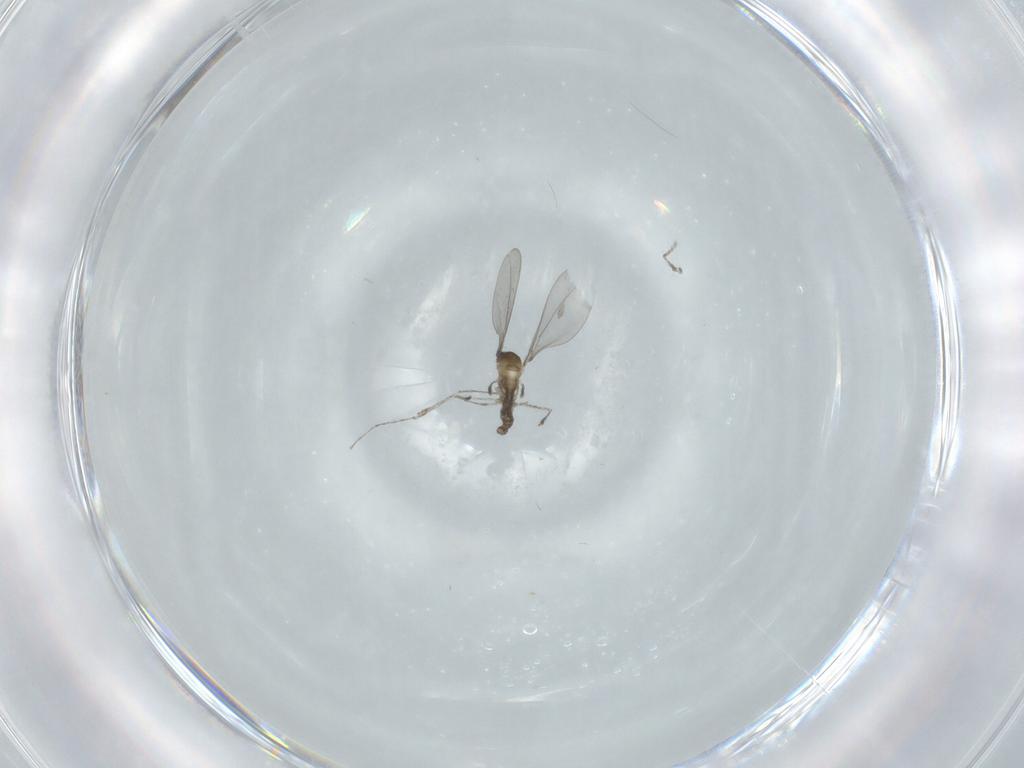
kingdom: Animalia
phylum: Arthropoda
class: Insecta
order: Diptera
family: Cecidomyiidae
